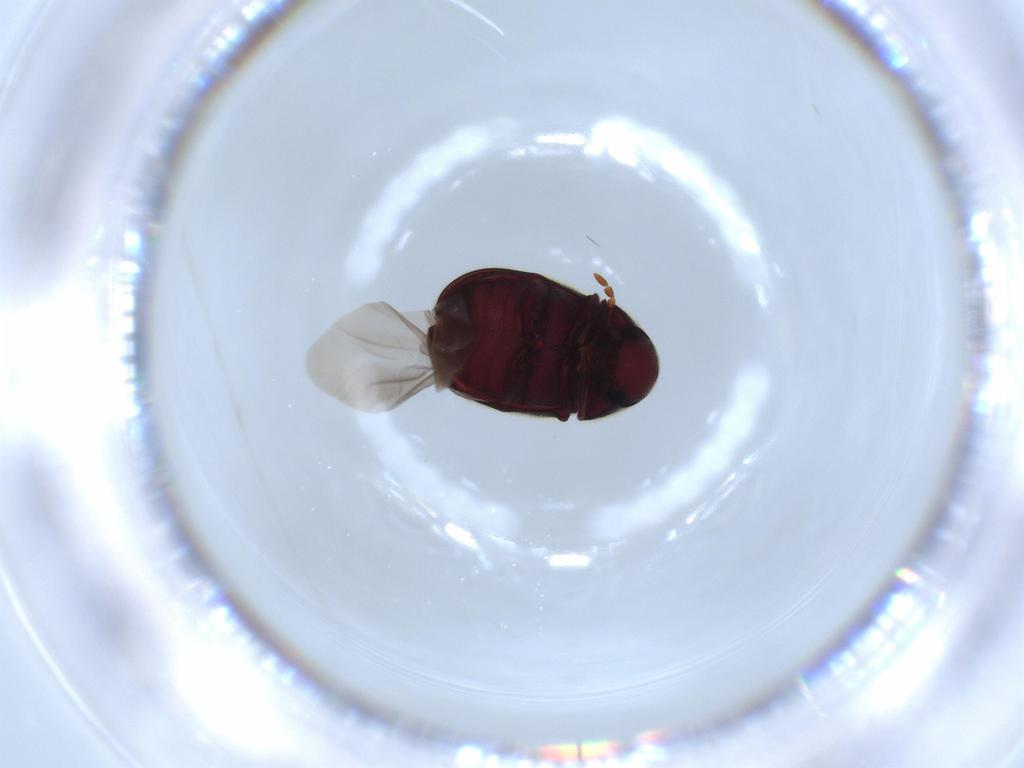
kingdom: Animalia
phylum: Arthropoda
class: Insecta
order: Coleoptera
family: Ptinidae
